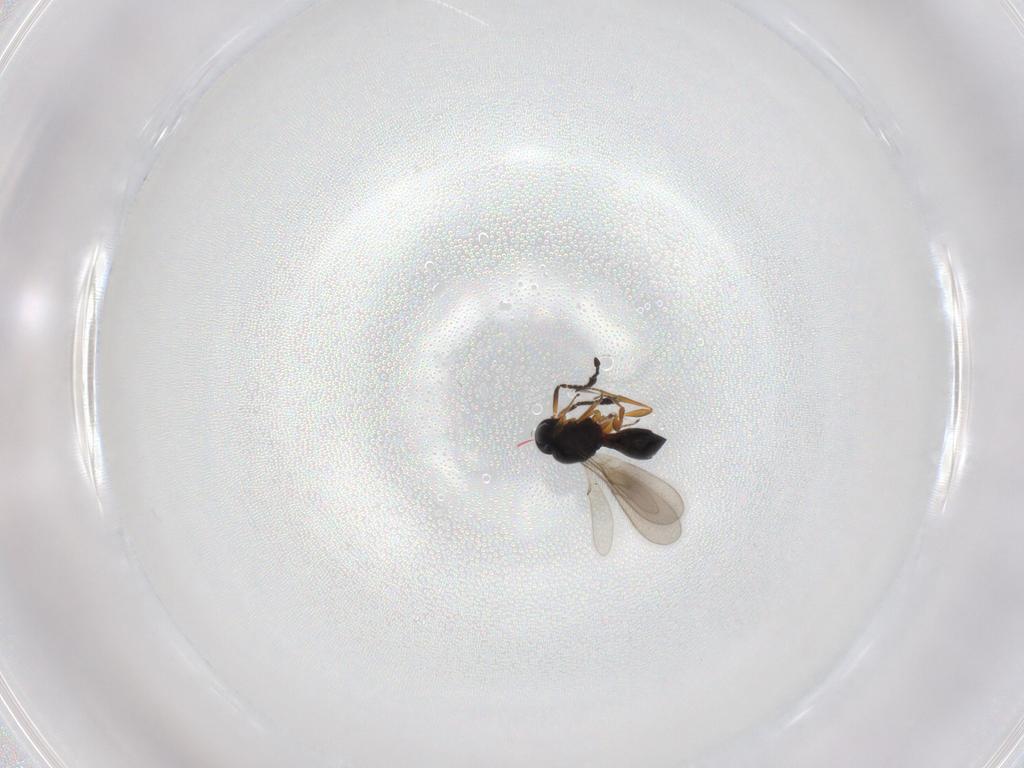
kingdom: Animalia
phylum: Arthropoda
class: Insecta
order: Hymenoptera
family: Scelionidae
